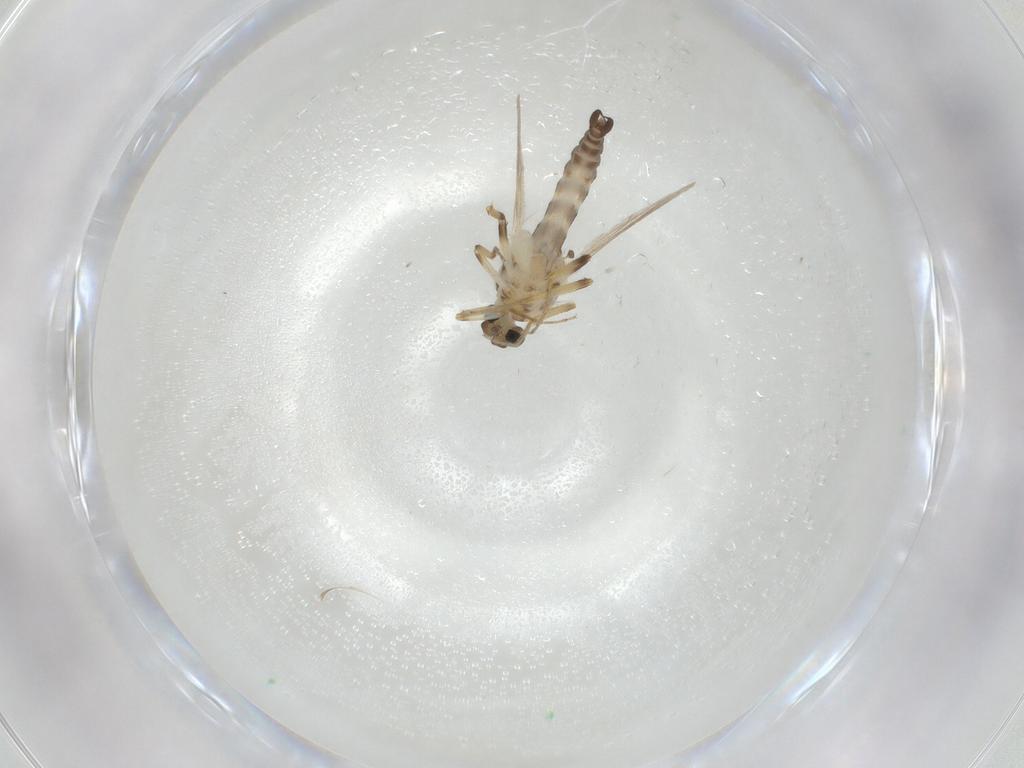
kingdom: Animalia
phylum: Arthropoda
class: Insecta
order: Diptera
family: Ceratopogonidae
